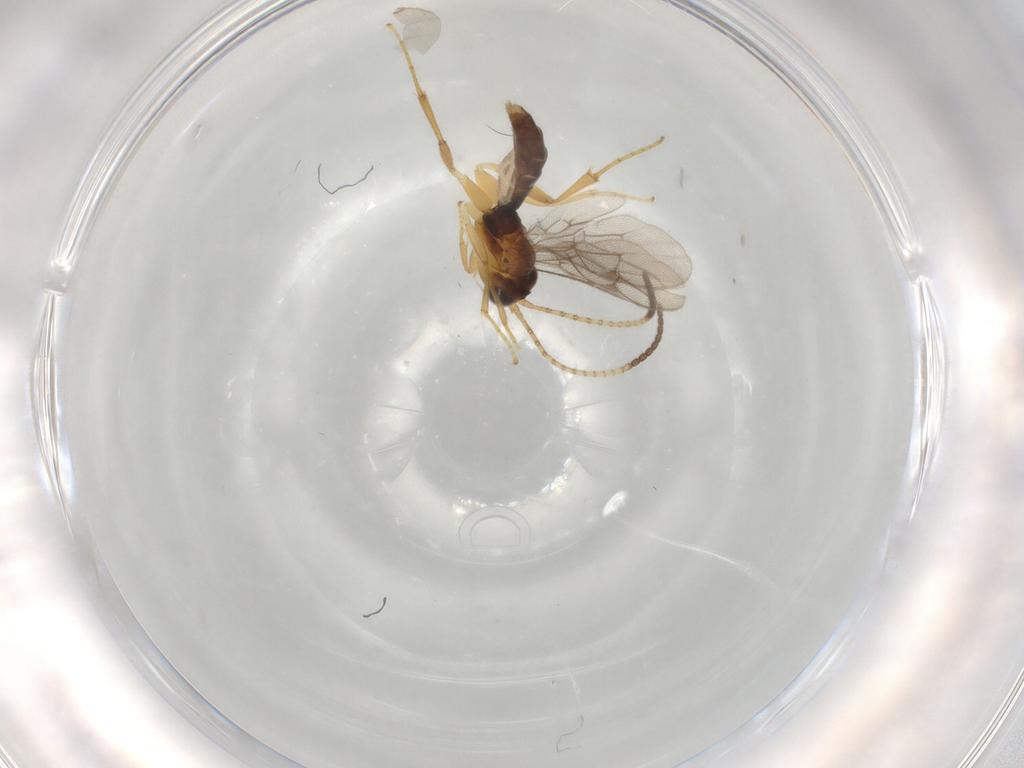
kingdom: Animalia
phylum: Arthropoda
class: Insecta
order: Hymenoptera
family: Ichneumonidae
